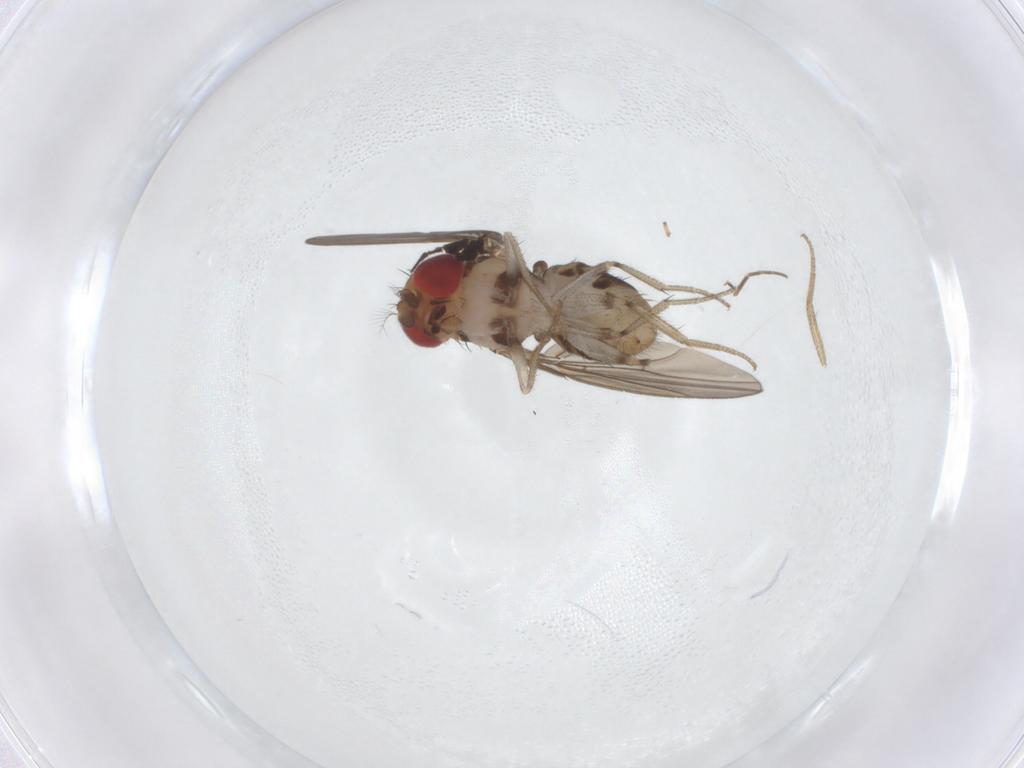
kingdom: Animalia
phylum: Arthropoda
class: Insecta
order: Diptera
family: Drosophilidae
